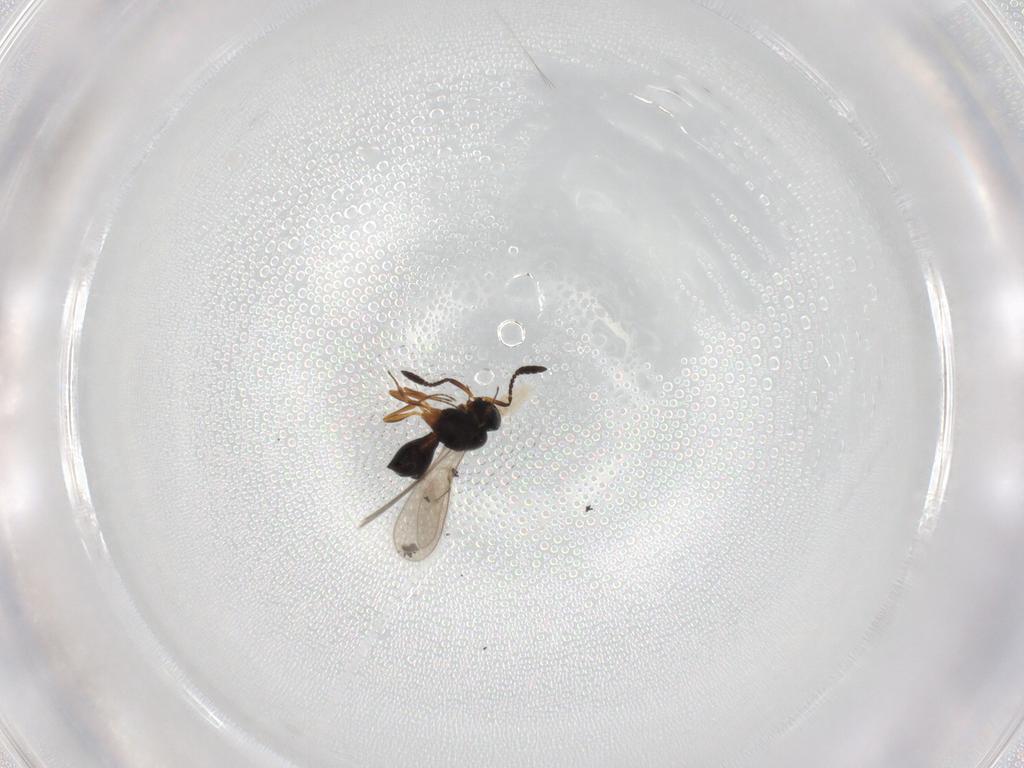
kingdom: Animalia
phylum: Arthropoda
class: Insecta
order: Hymenoptera
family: Scelionidae
